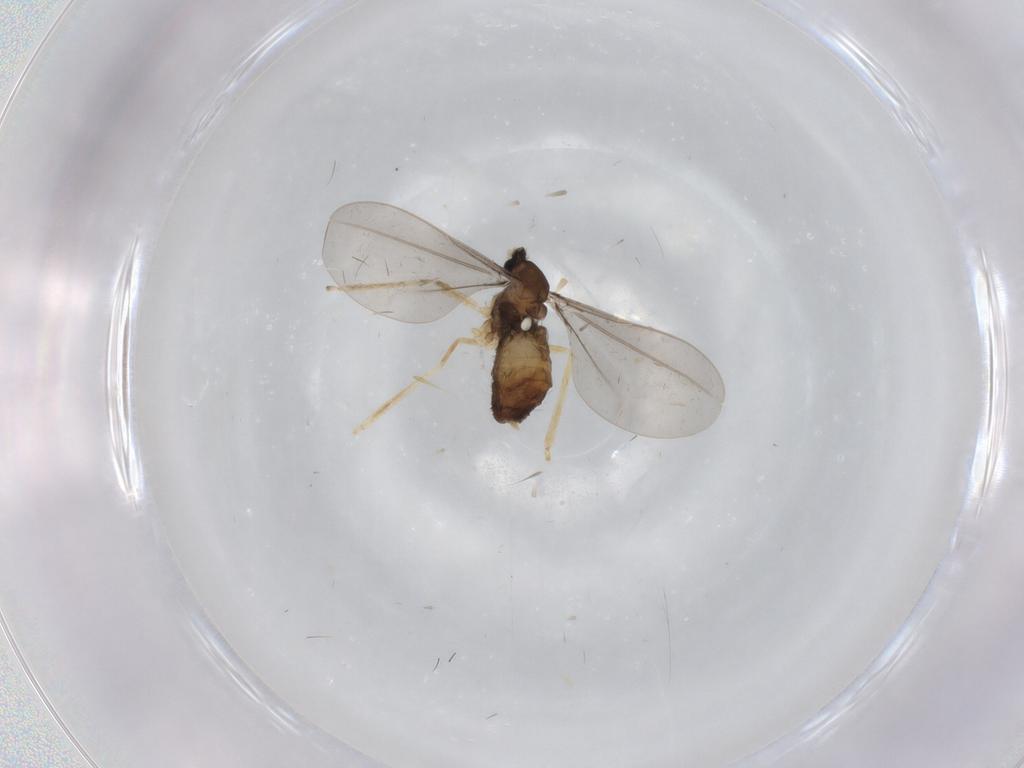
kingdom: Animalia
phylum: Arthropoda
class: Insecta
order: Diptera
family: Cecidomyiidae
